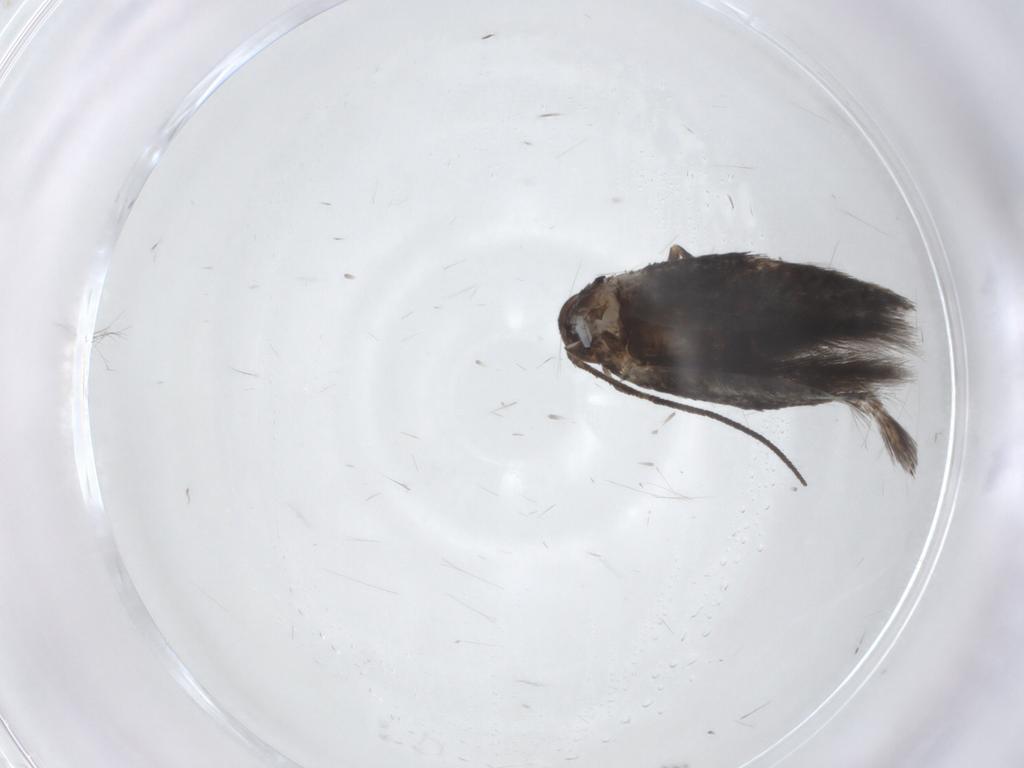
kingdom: Animalia
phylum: Arthropoda
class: Insecta
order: Lepidoptera
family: Elachistidae
